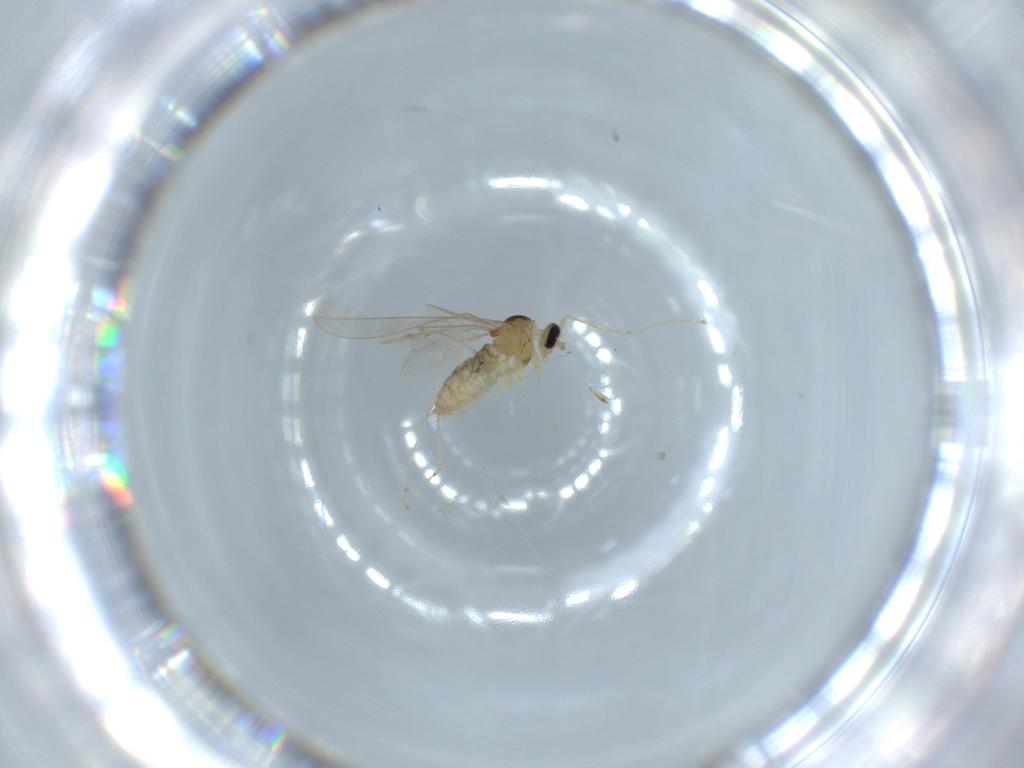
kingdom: Animalia
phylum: Arthropoda
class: Insecta
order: Diptera
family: Cecidomyiidae
